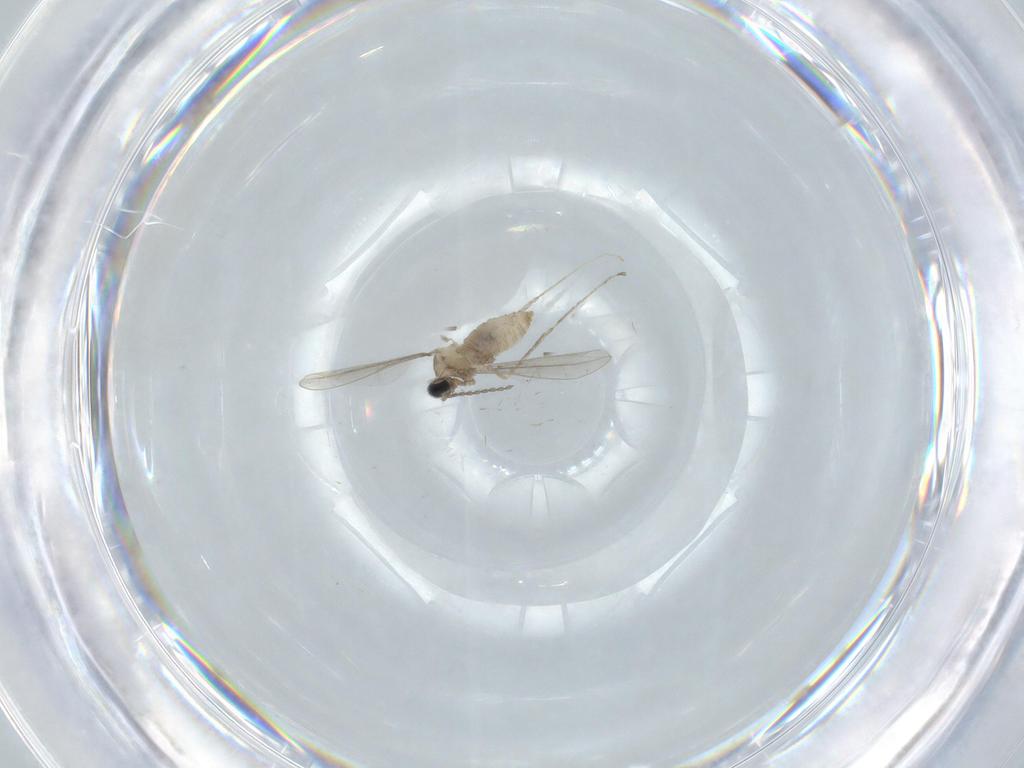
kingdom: Animalia
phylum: Arthropoda
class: Insecta
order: Diptera
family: Cecidomyiidae
